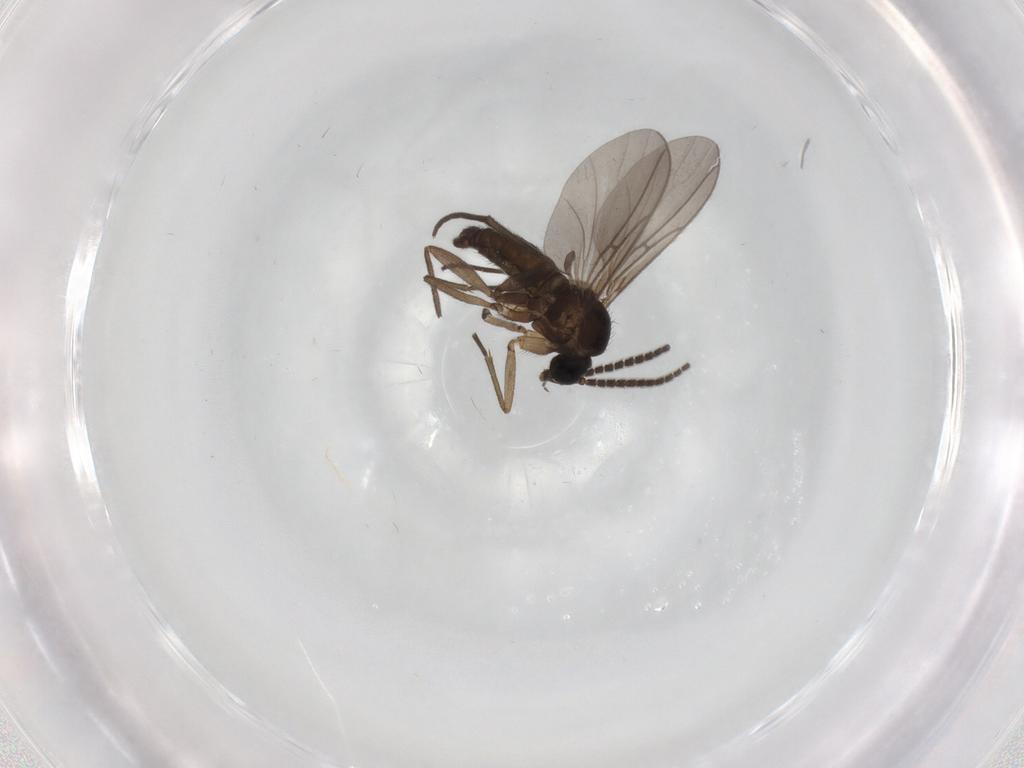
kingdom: Animalia
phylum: Arthropoda
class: Insecta
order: Diptera
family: Sciaridae
